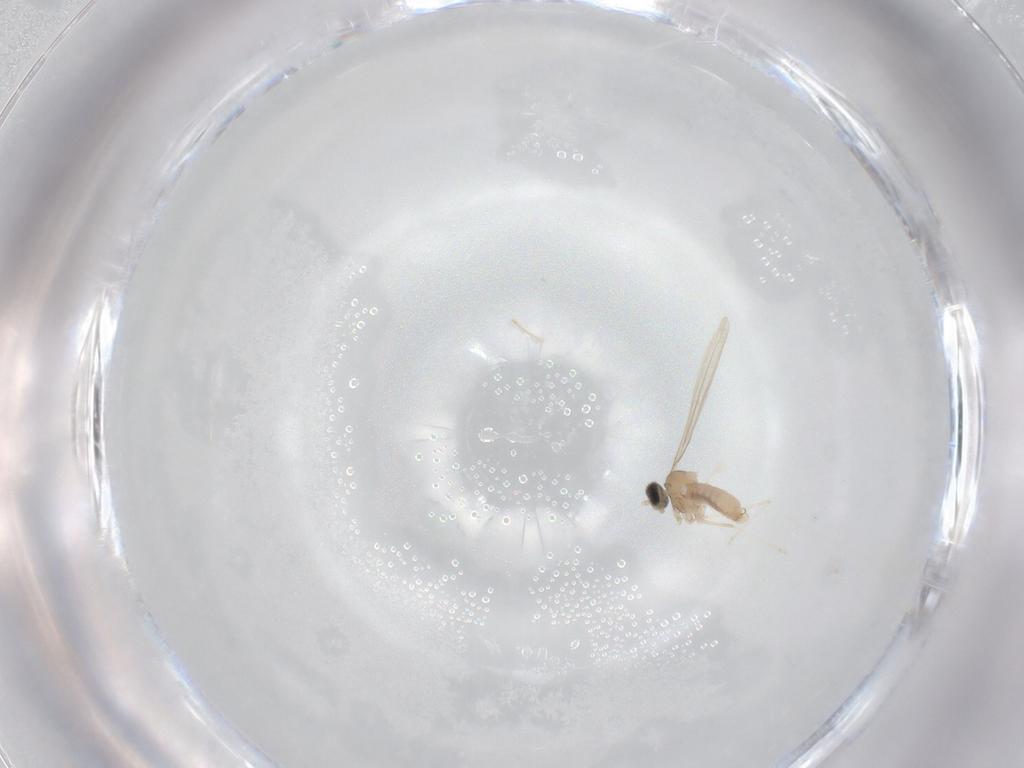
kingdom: Animalia
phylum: Arthropoda
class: Insecta
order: Diptera
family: Cecidomyiidae
